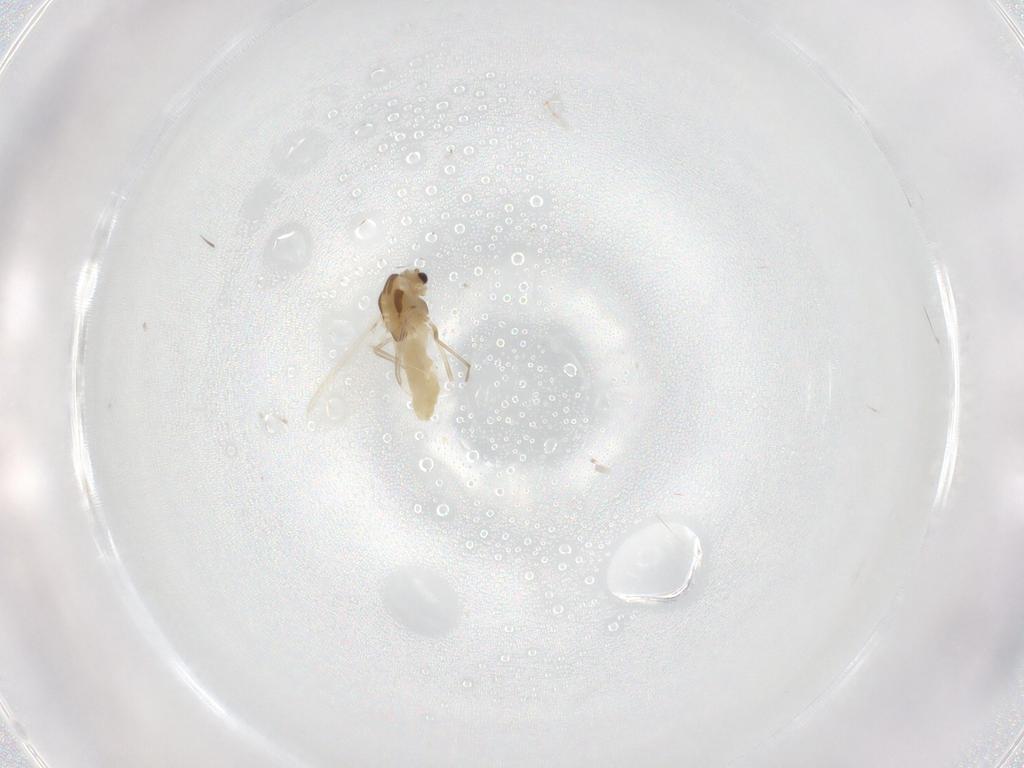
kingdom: Animalia
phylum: Arthropoda
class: Insecta
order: Diptera
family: Chironomidae
